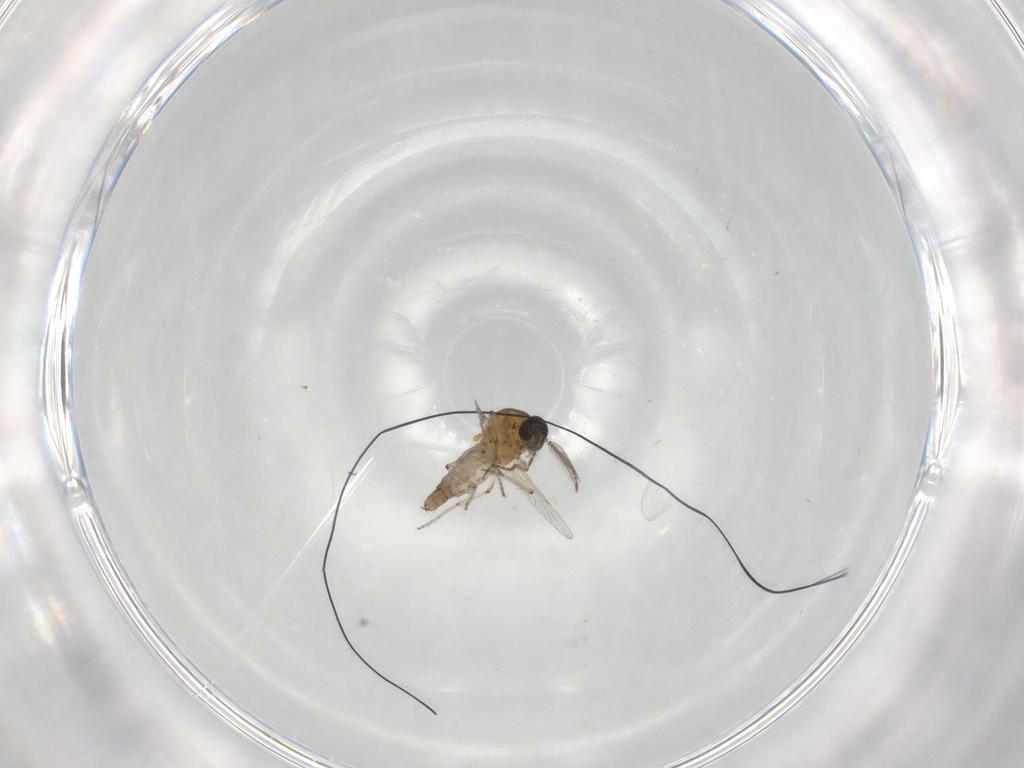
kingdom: Animalia
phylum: Arthropoda
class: Insecta
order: Diptera
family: Ceratopogonidae
